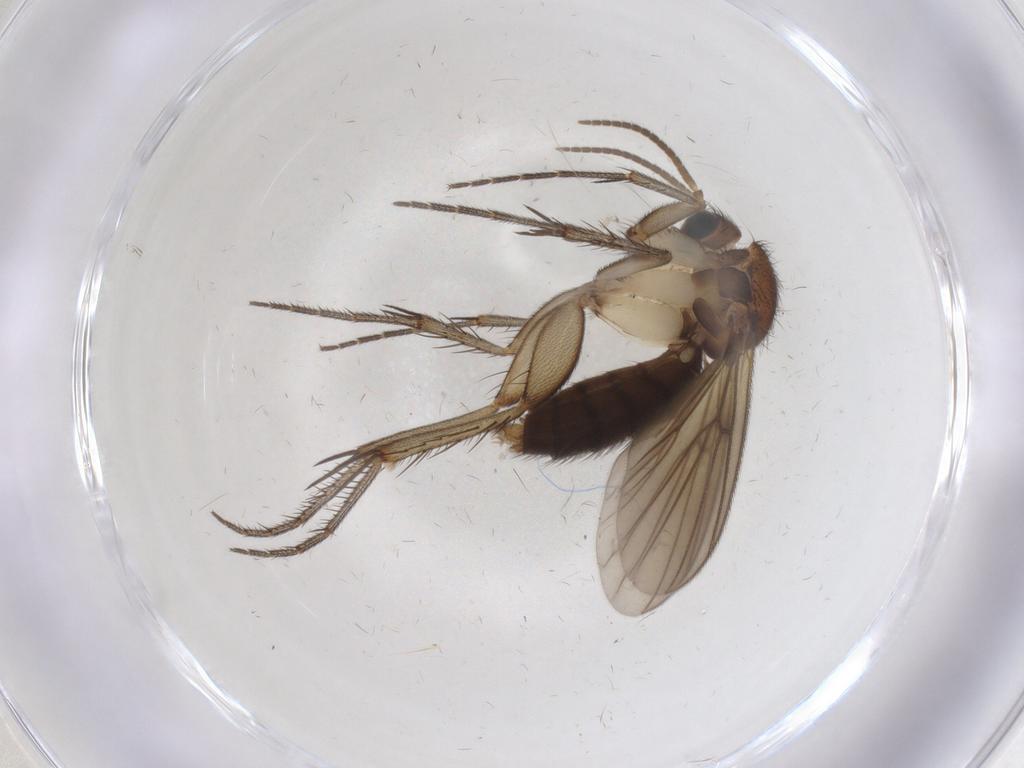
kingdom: Animalia
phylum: Arthropoda
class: Insecta
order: Diptera
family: Mycetophilidae
